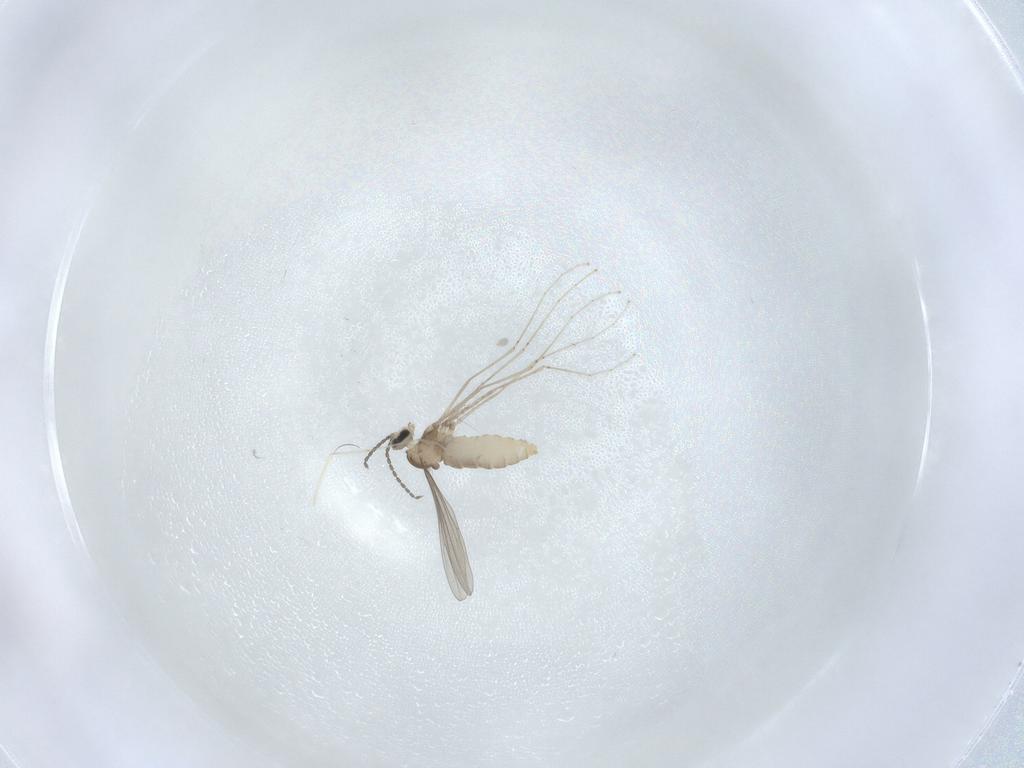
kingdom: Animalia
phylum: Arthropoda
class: Insecta
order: Diptera
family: Cecidomyiidae
